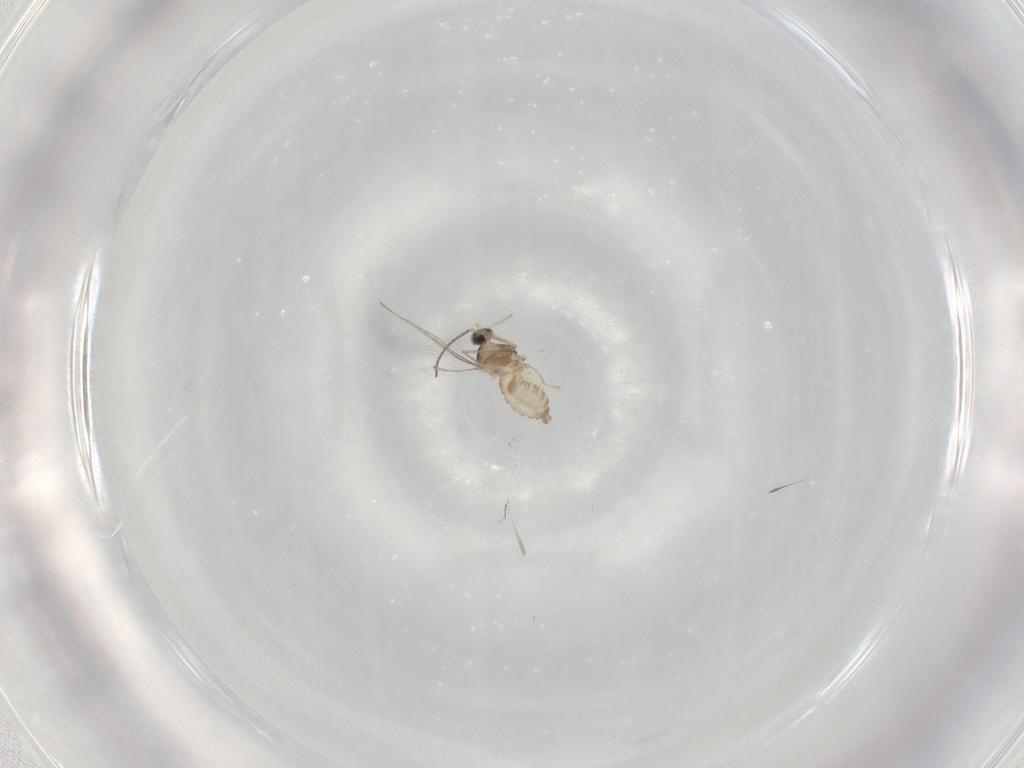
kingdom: Animalia
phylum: Arthropoda
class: Insecta
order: Diptera
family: Cecidomyiidae
